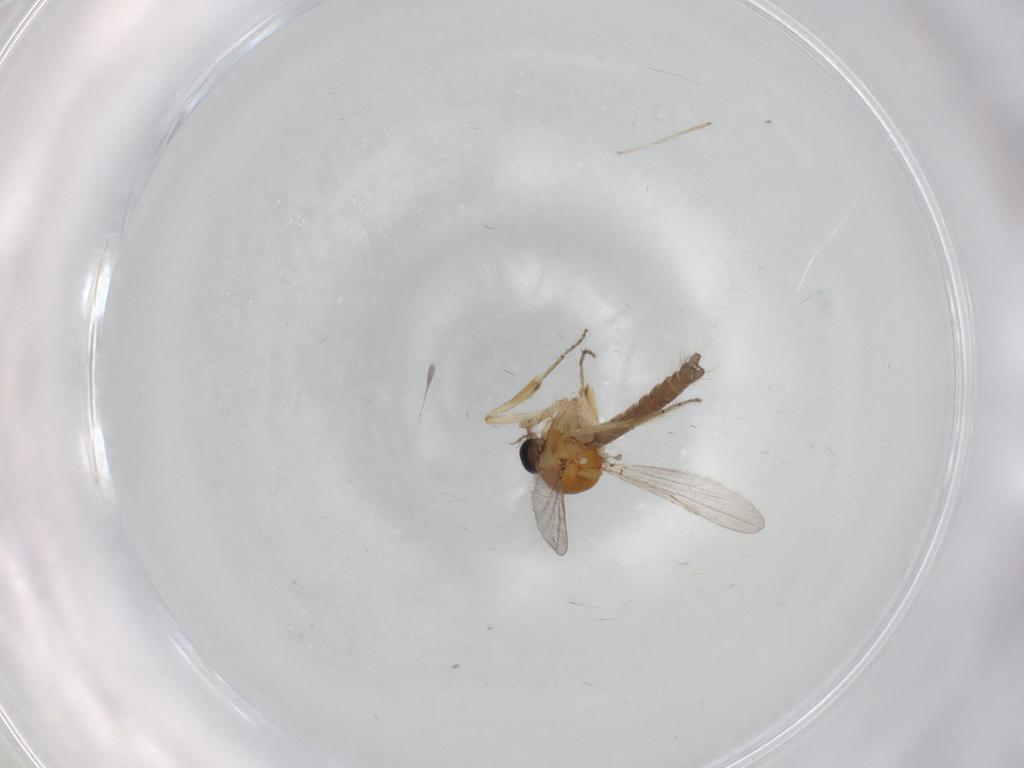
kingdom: Animalia
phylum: Arthropoda
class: Insecta
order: Diptera
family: Ceratopogonidae
